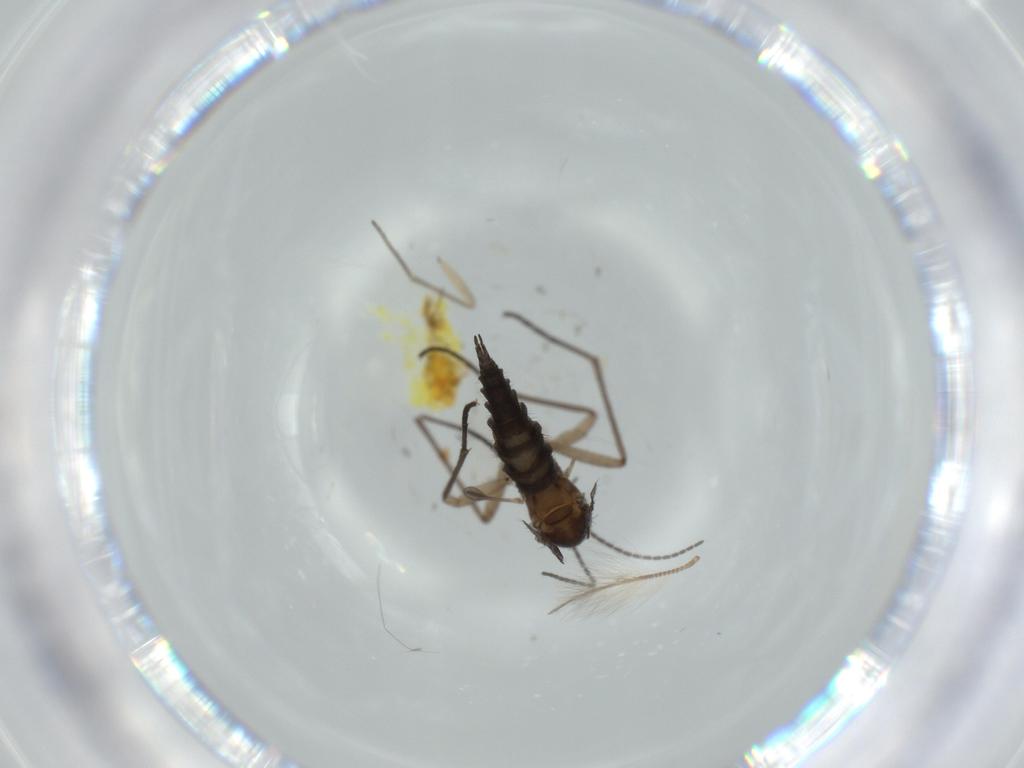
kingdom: Animalia
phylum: Arthropoda
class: Insecta
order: Diptera
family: Sciaridae
